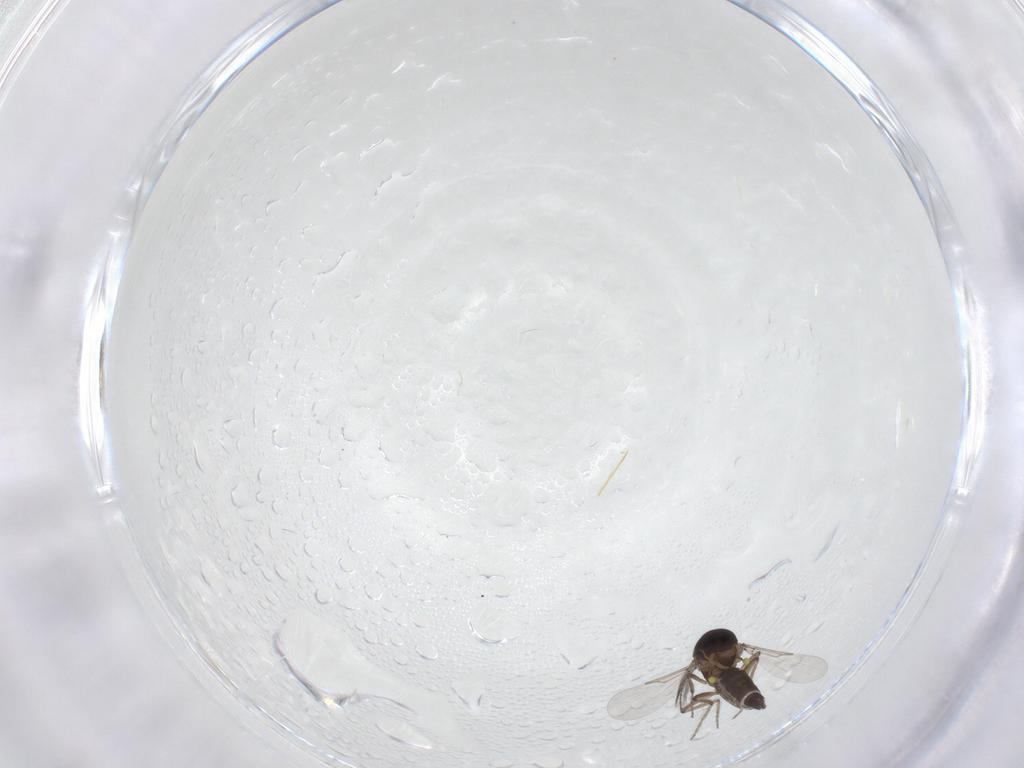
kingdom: Animalia
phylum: Arthropoda
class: Insecta
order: Diptera
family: Ceratopogonidae
